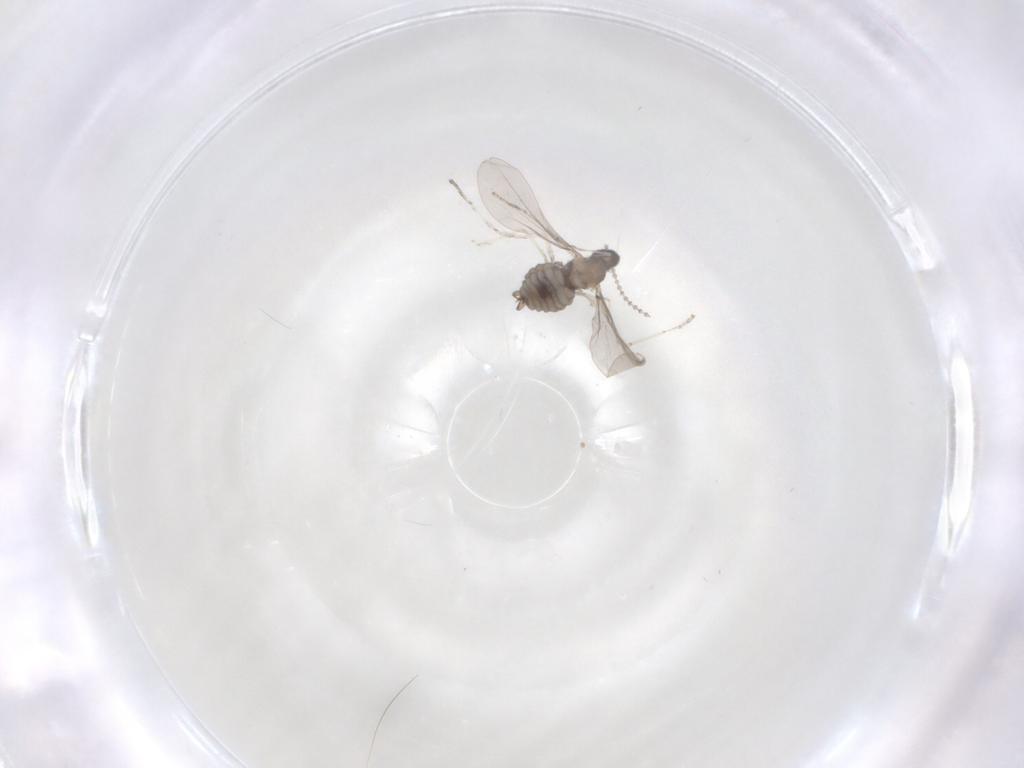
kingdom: Animalia
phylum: Arthropoda
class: Insecta
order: Diptera
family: Cecidomyiidae
